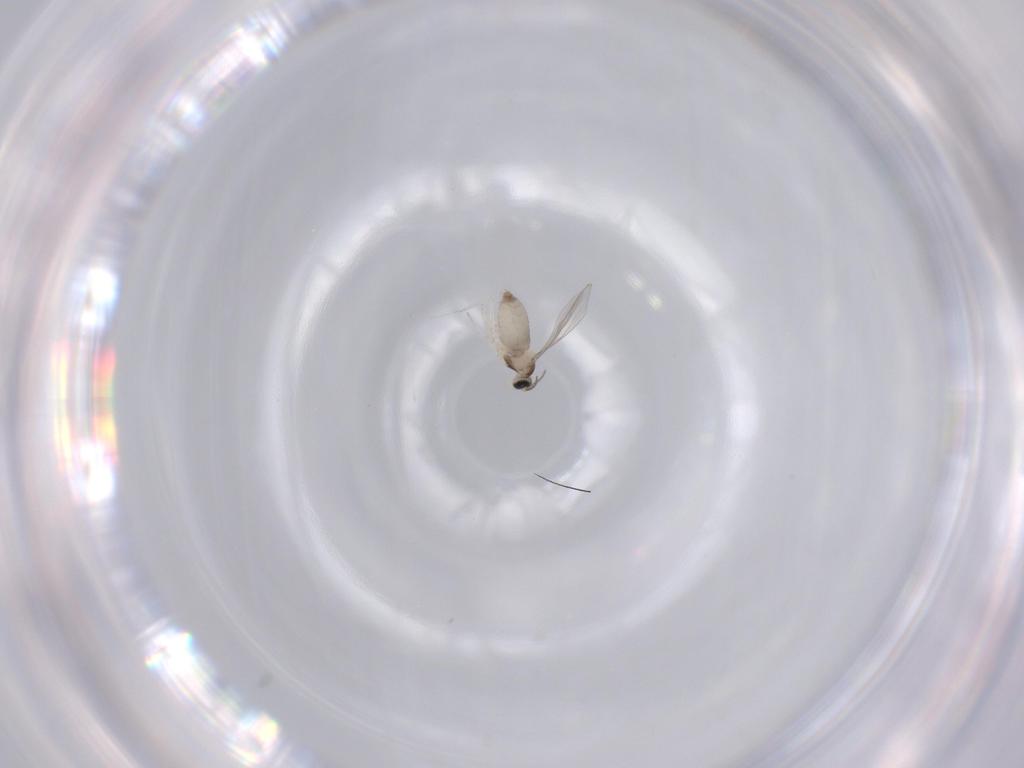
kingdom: Animalia
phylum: Arthropoda
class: Insecta
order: Diptera
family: Cecidomyiidae
